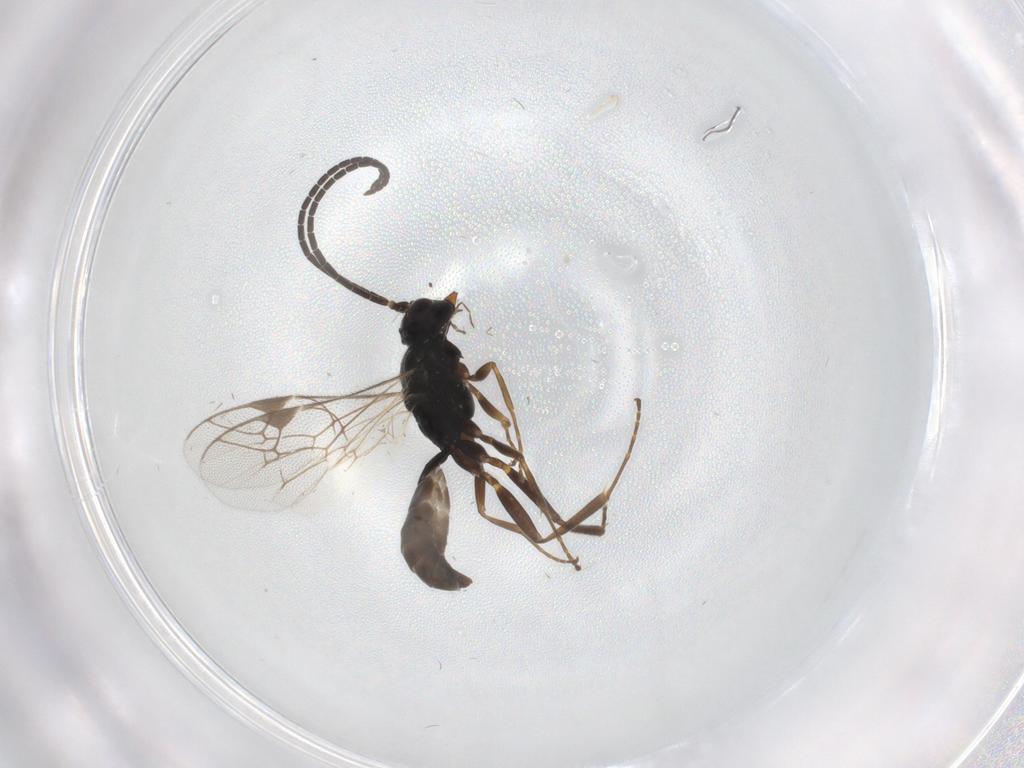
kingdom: Animalia
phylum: Arthropoda
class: Insecta
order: Hymenoptera
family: Ichneumonidae
